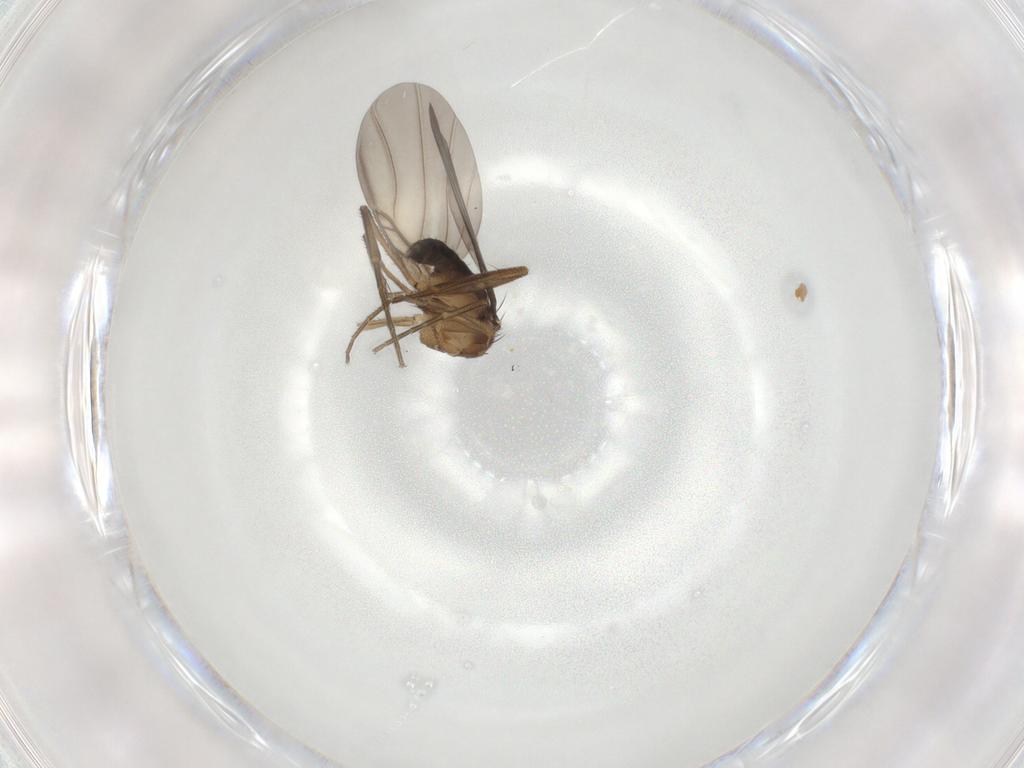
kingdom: Animalia
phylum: Arthropoda
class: Insecta
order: Diptera
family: Phoridae
